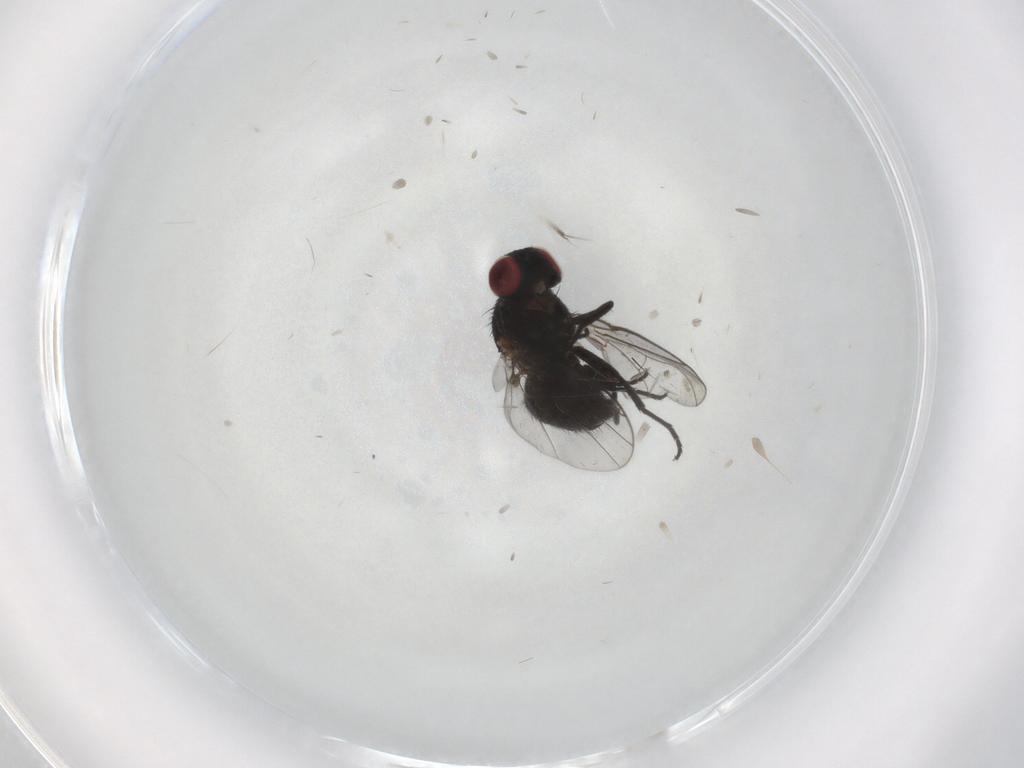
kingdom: Animalia
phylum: Arthropoda
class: Insecta
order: Diptera
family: Agromyzidae
